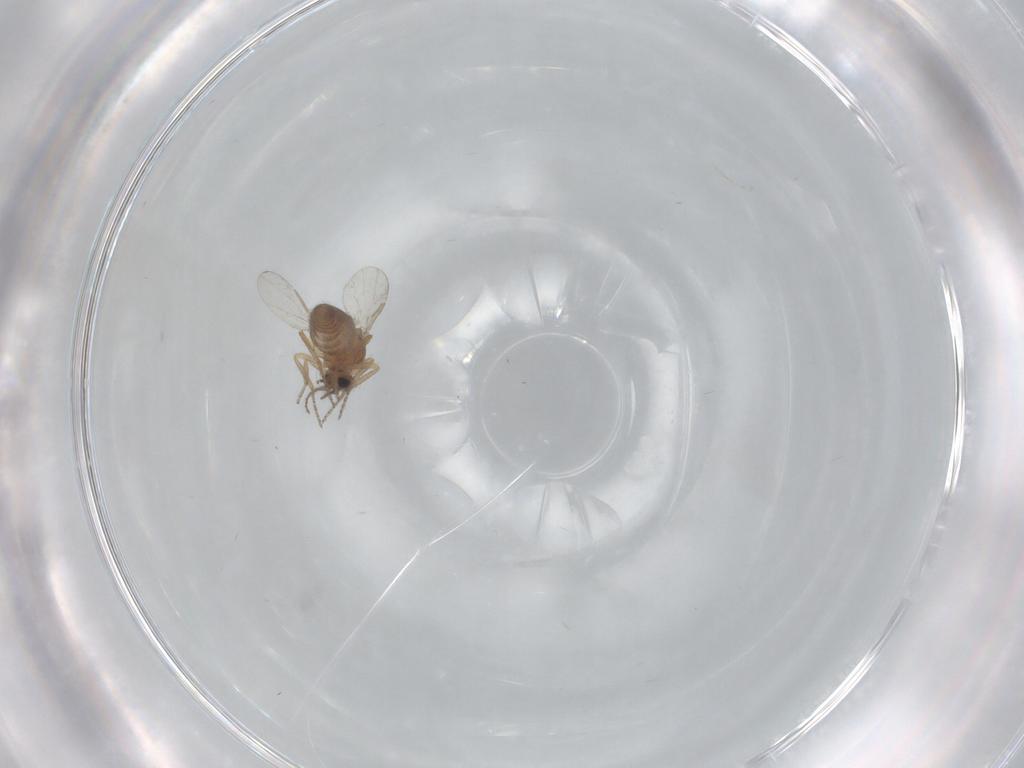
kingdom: Animalia
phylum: Arthropoda
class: Insecta
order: Diptera
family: Ceratopogonidae
